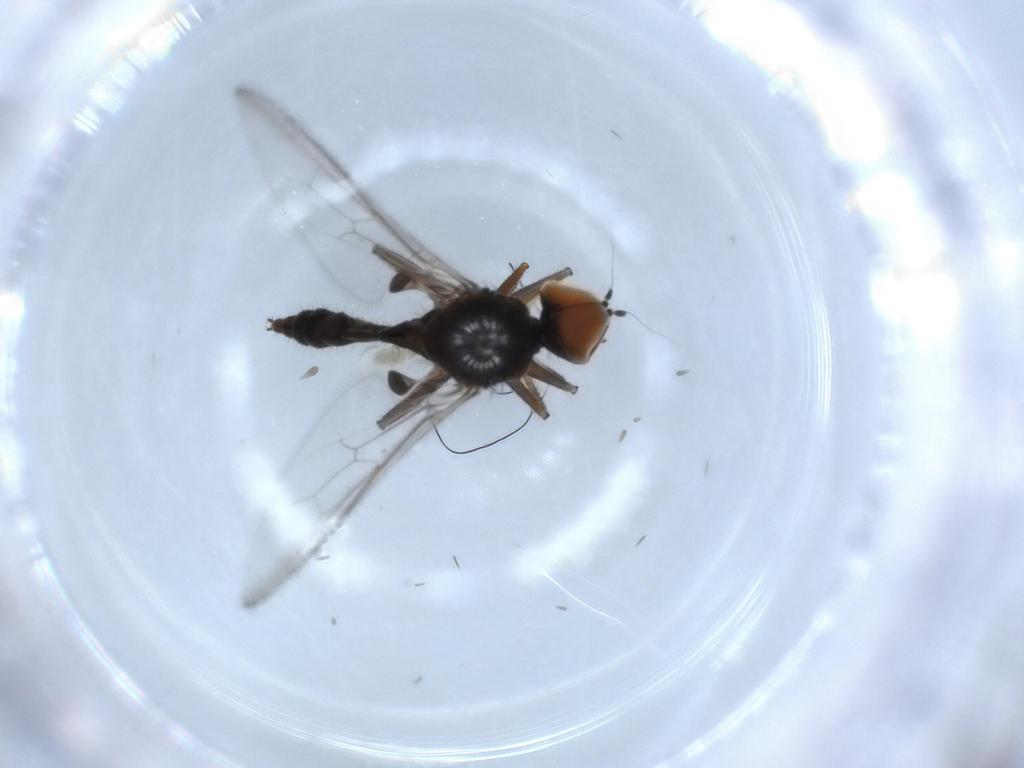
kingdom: Animalia
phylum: Arthropoda
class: Insecta
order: Diptera
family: Hybotidae
